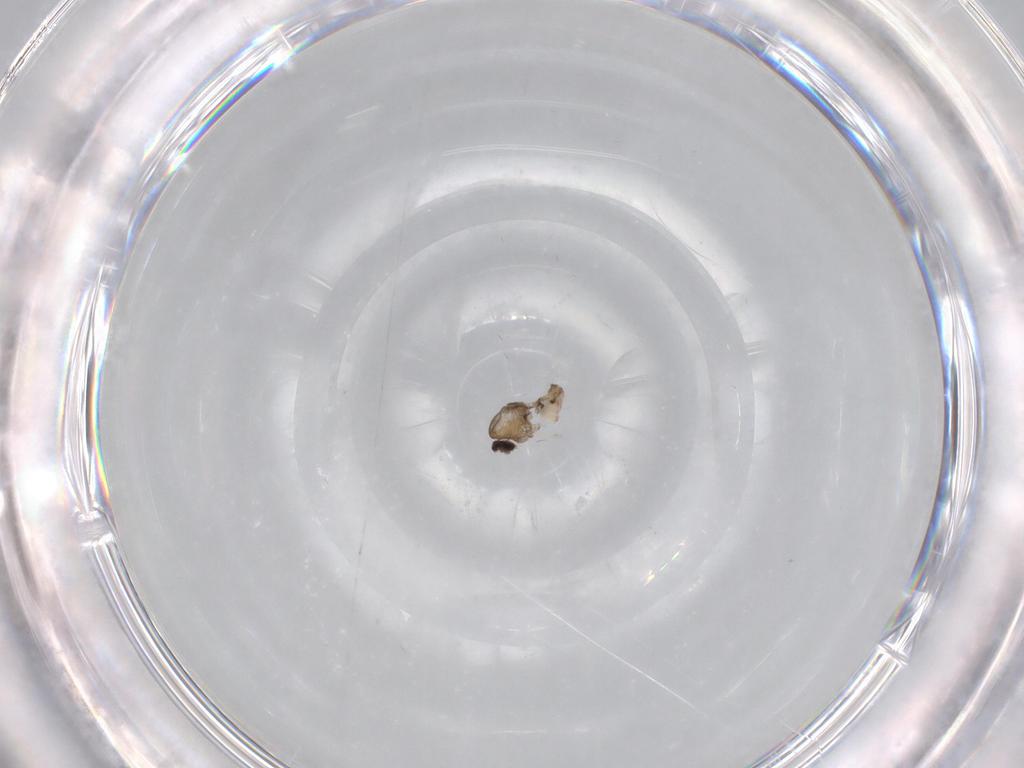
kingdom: Animalia
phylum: Arthropoda
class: Insecta
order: Diptera
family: Cecidomyiidae
